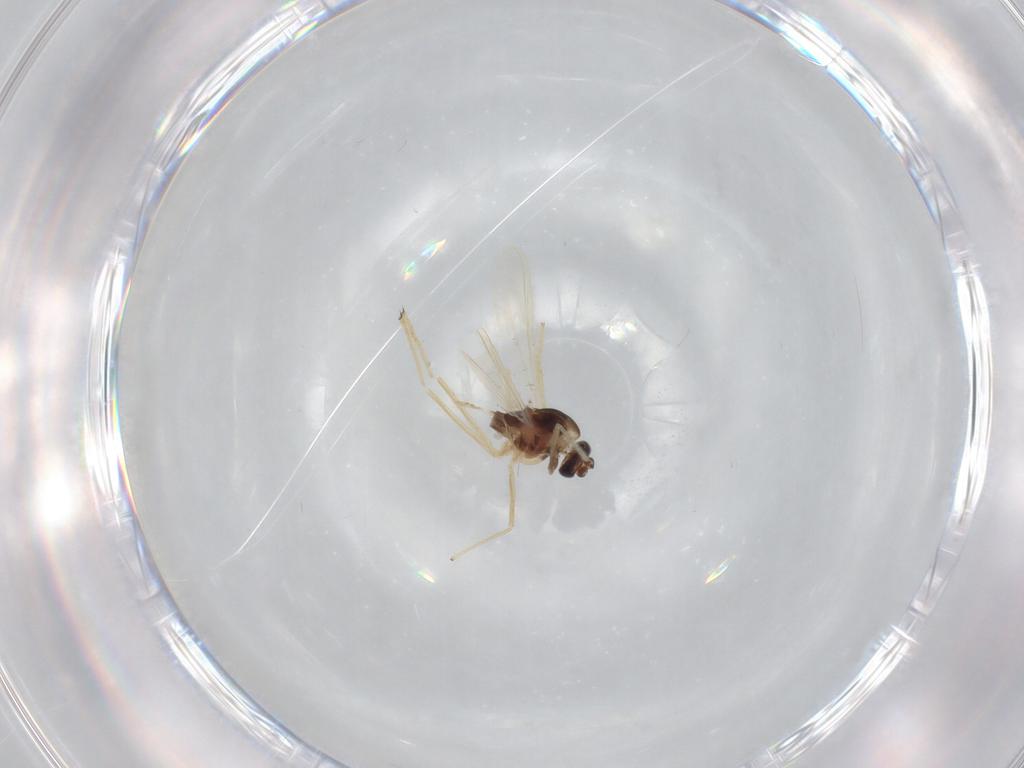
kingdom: Animalia
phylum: Arthropoda
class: Insecta
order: Diptera
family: Chironomidae
